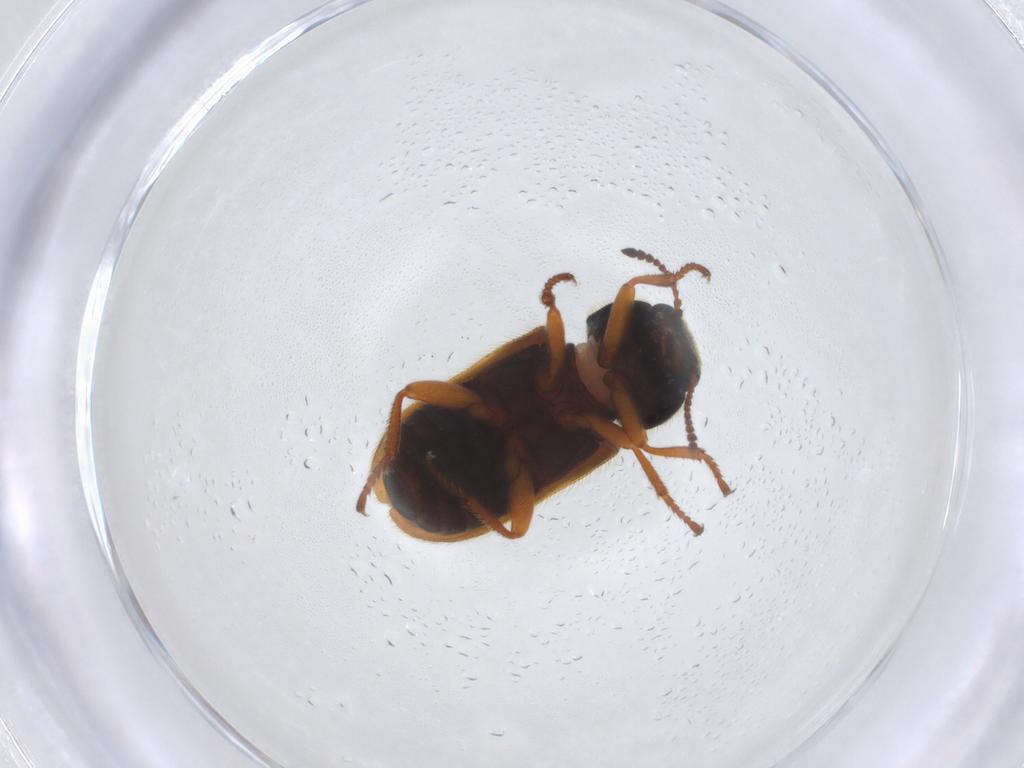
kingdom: Animalia
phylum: Arthropoda
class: Insecta
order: Coleoptera
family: Melyridae
